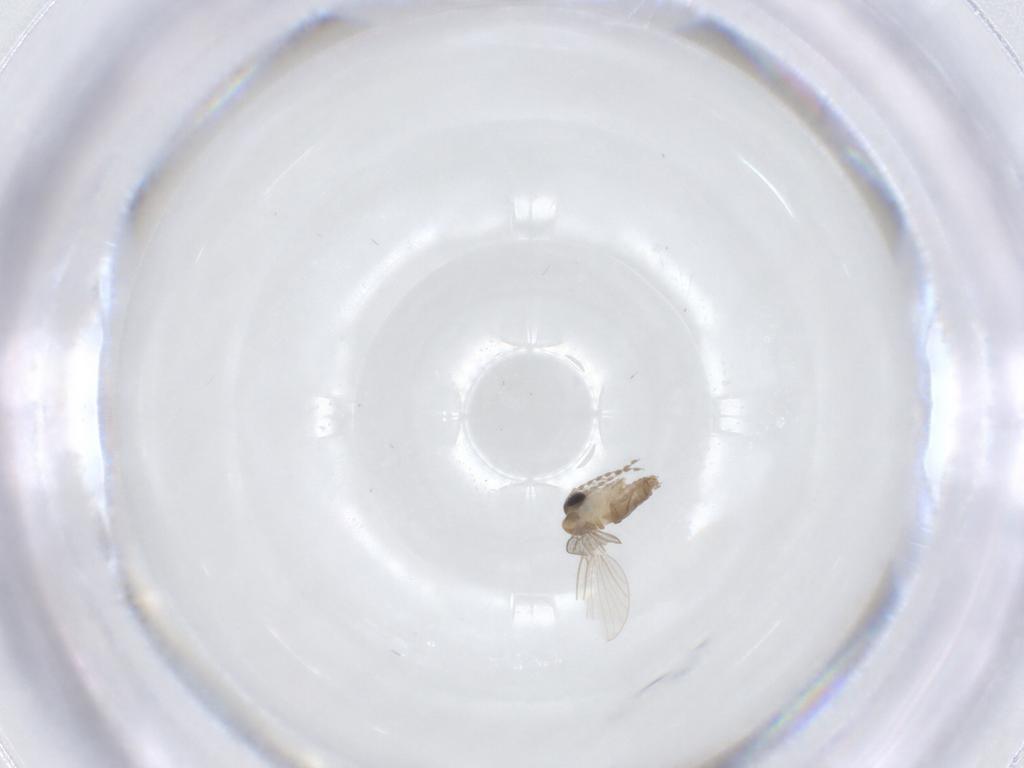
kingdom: Animalia
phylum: Arthropoda
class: Insecta
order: Diptera
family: Psychodidae
